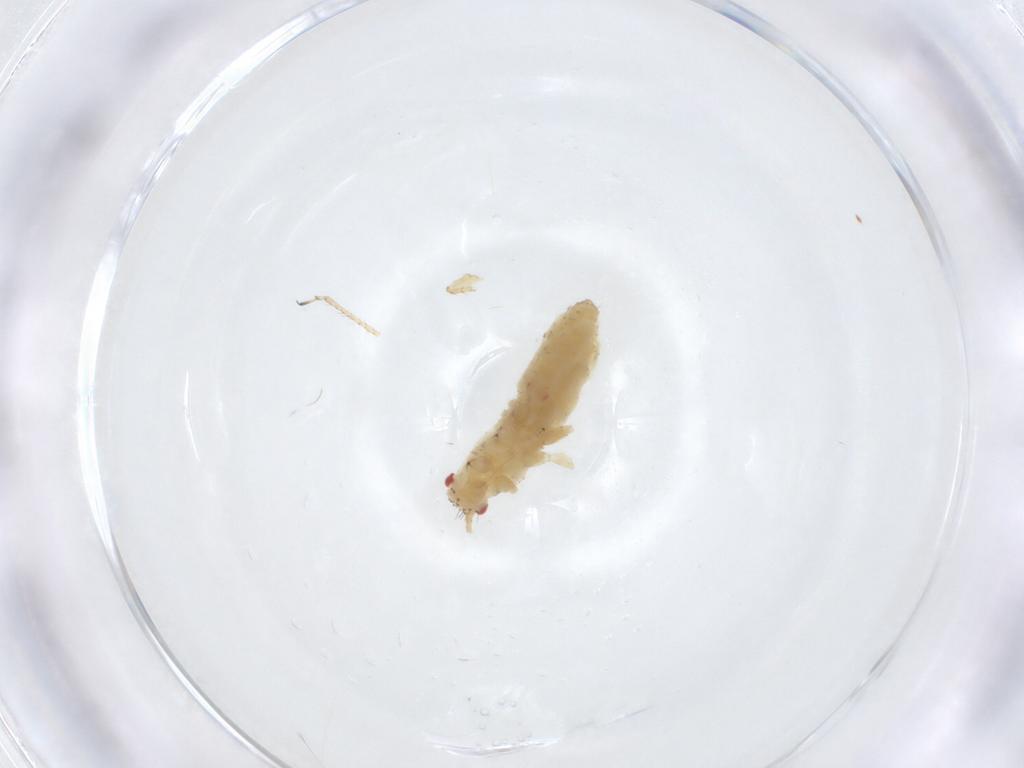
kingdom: Animalia
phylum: Arthropoda
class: Insecta
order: Hemiptera
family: Aphididae
